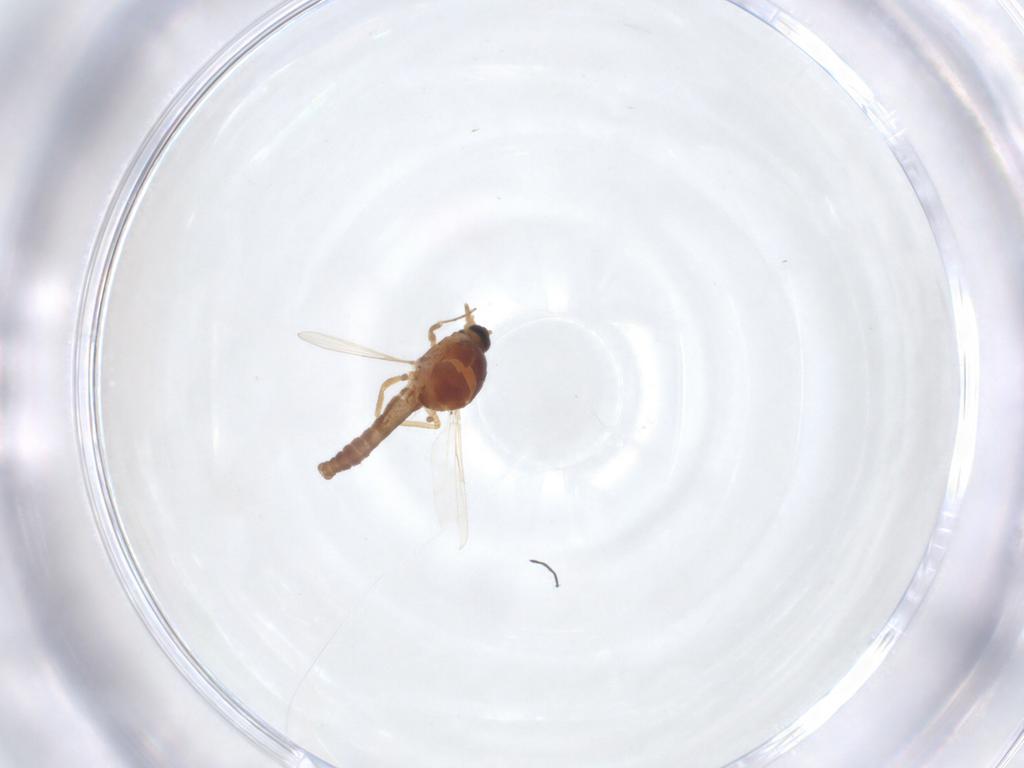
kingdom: Animalia
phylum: Arthropoda
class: Insecta
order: Diptera
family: Ceratopogonidae
